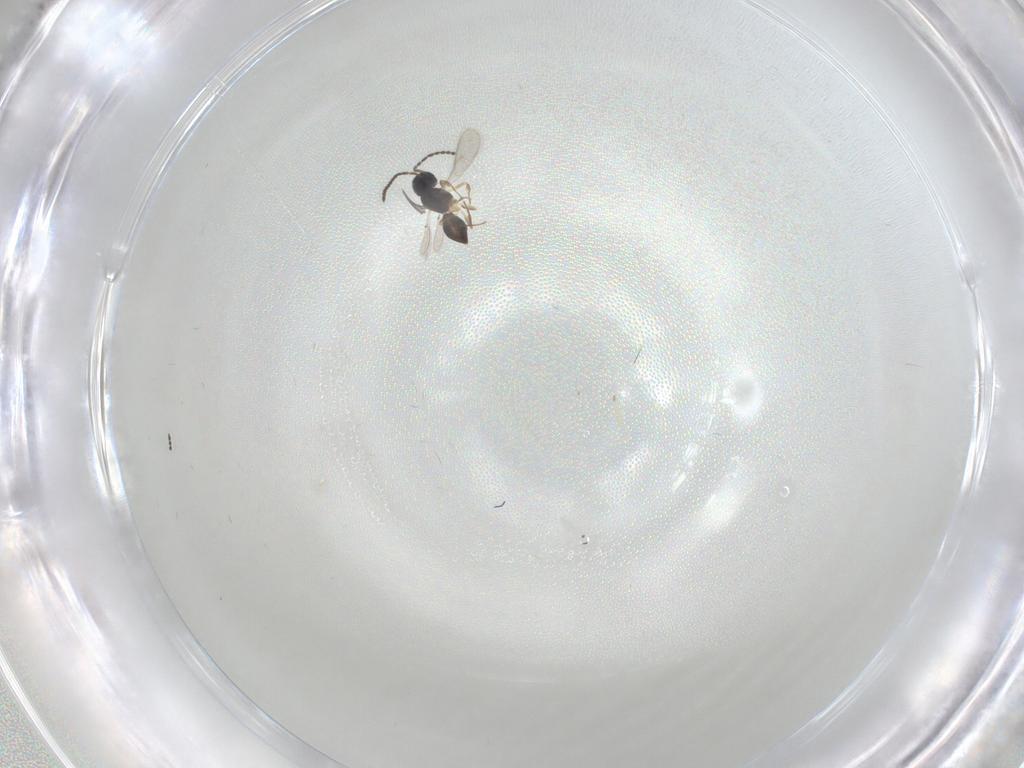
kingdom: Animalia
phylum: Arthropoda
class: Insecta
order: Hymenoptera
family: Scelionidae
